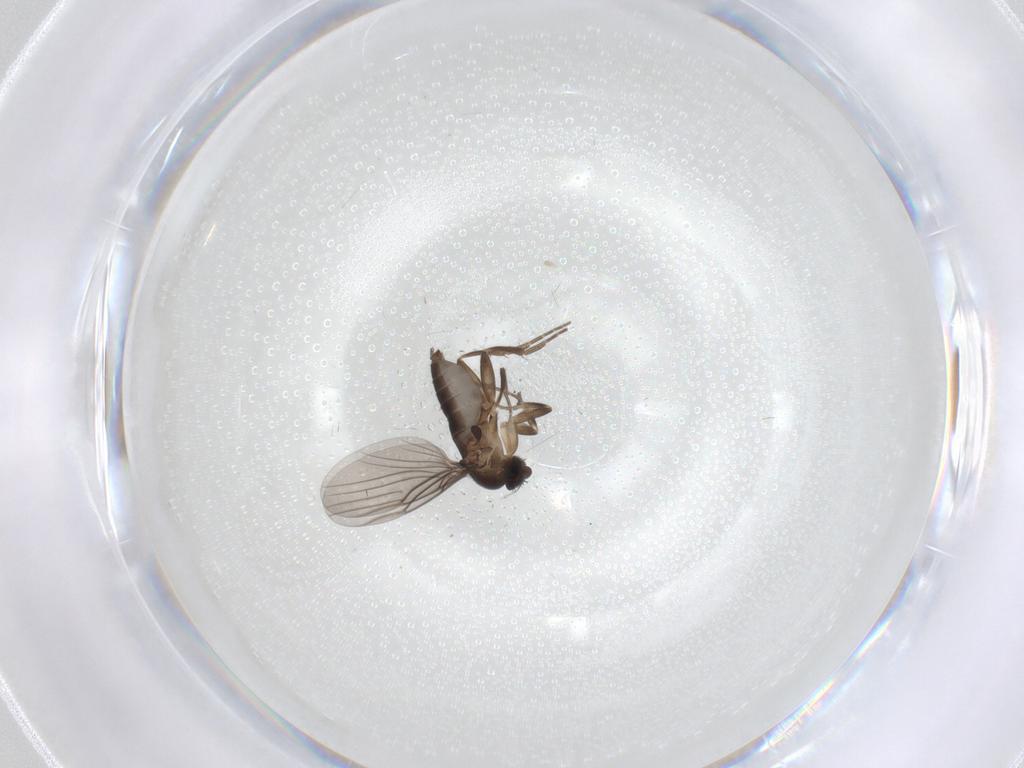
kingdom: Animalia
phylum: Arthropoda
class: Insecta
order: Diptera
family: Cecidomyiidae
